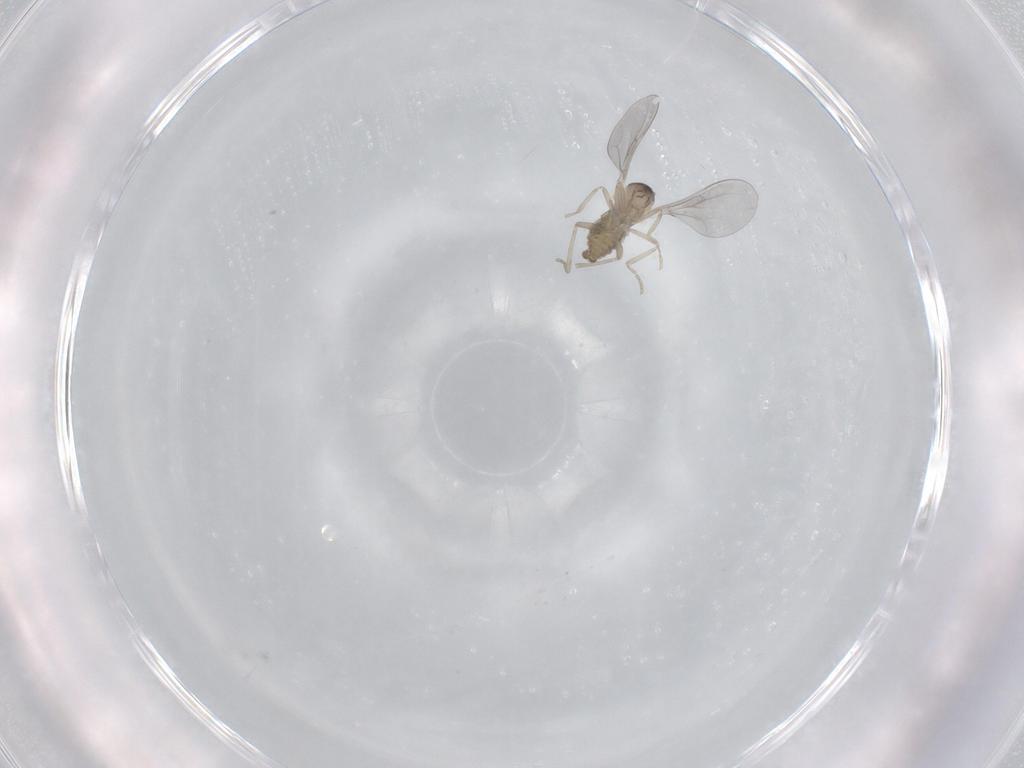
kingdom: Animalia
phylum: Arthropoda
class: Insecta
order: Diptera
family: Cecidomyiidae
